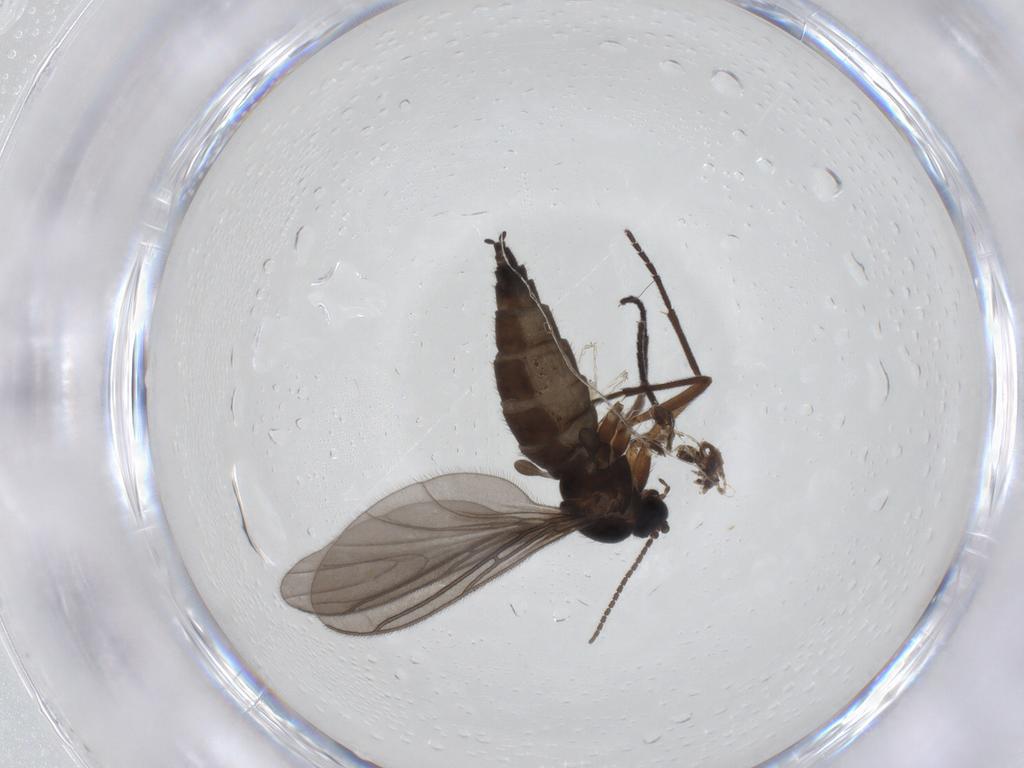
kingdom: Animalia
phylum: Arthropoda
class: Insecta
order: Diptera
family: Sciaridae
